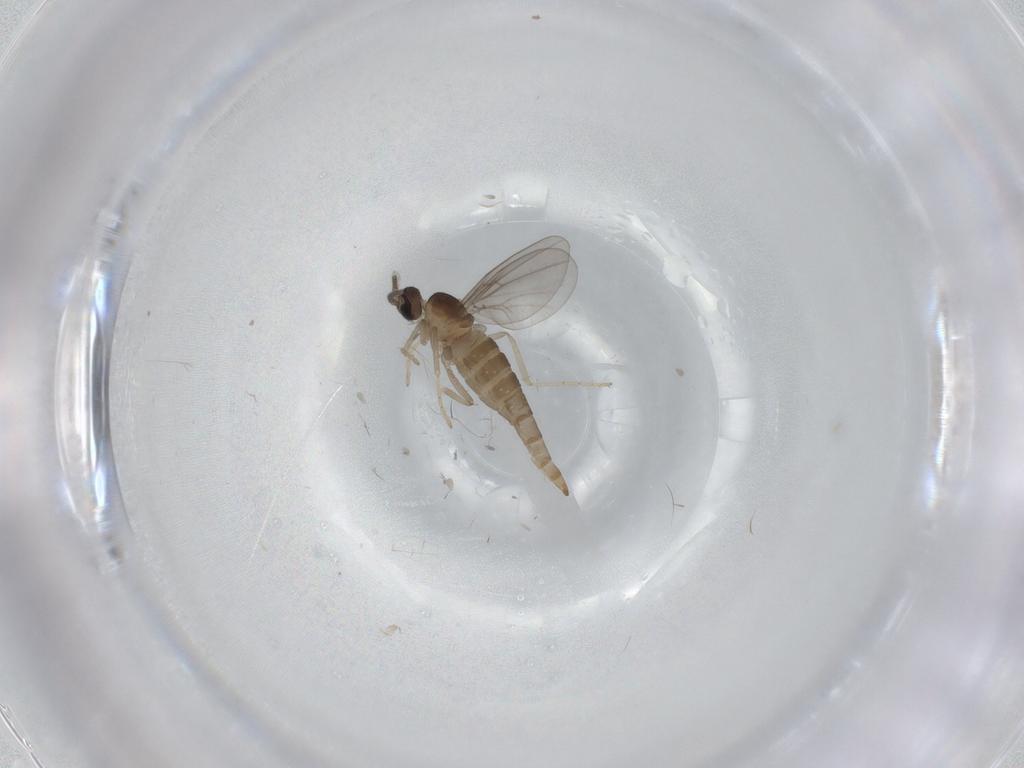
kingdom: Animalia
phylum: Arthropoda
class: Insecta
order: Diptera
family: Cecidomyiidae
